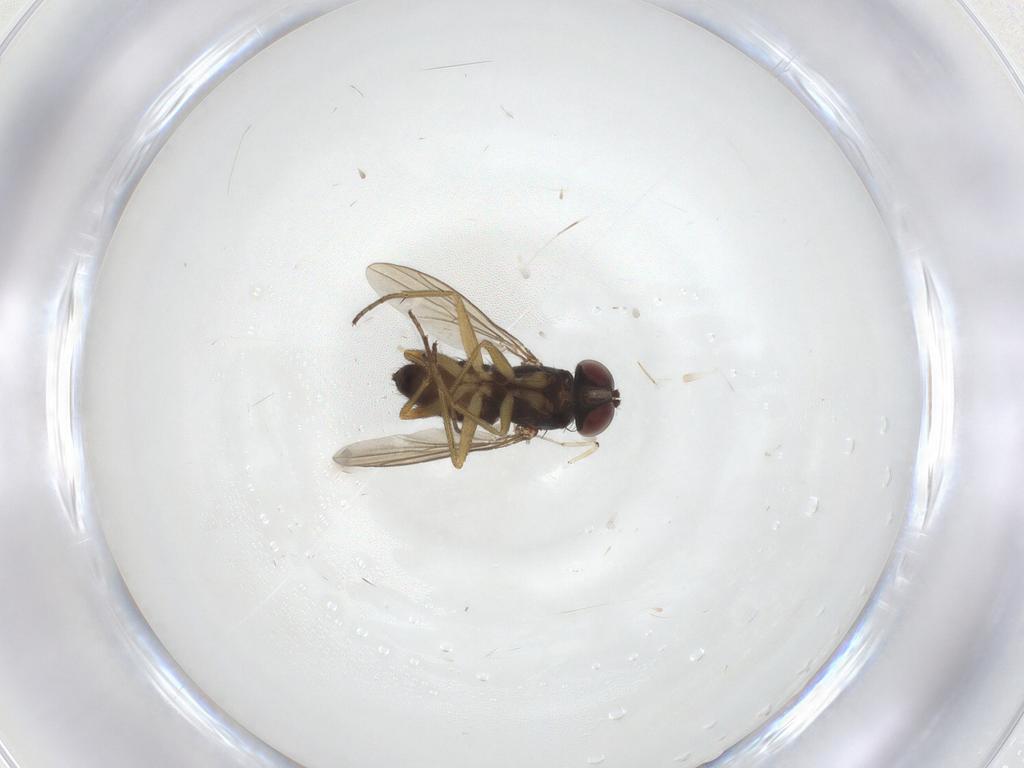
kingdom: Animalia
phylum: Arthropoda
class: Insecta
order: Diptera
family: Dolichopodidae
